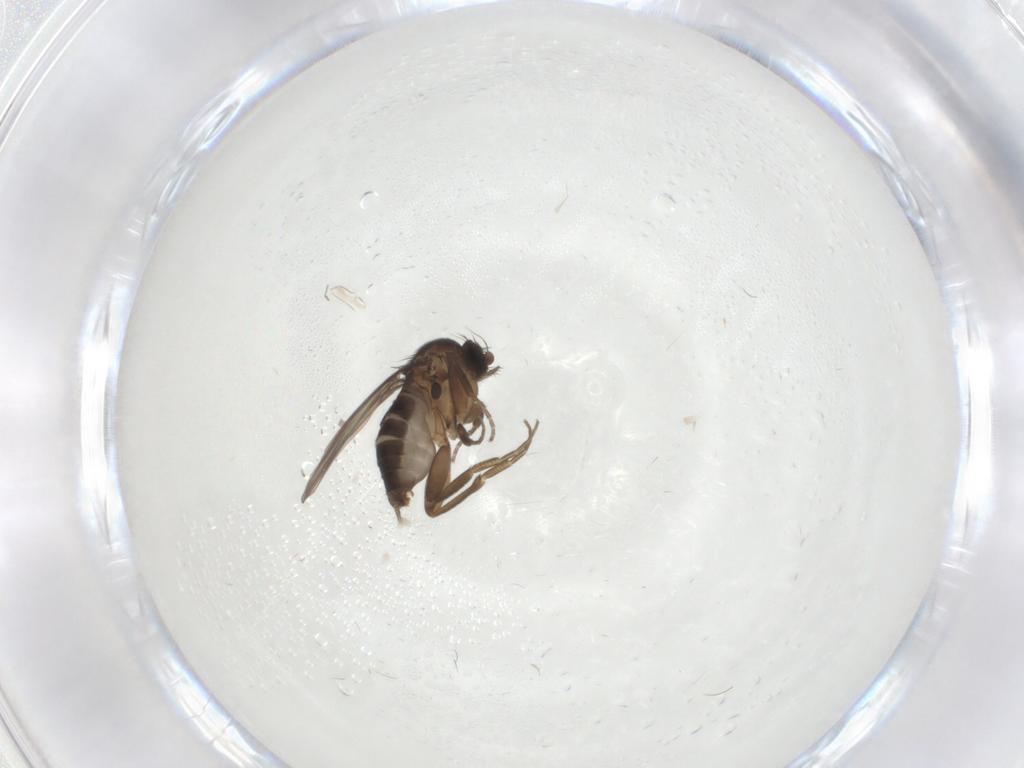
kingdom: Animalia
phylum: Arthropoda
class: Insecta
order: Diptera
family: Phoridae
